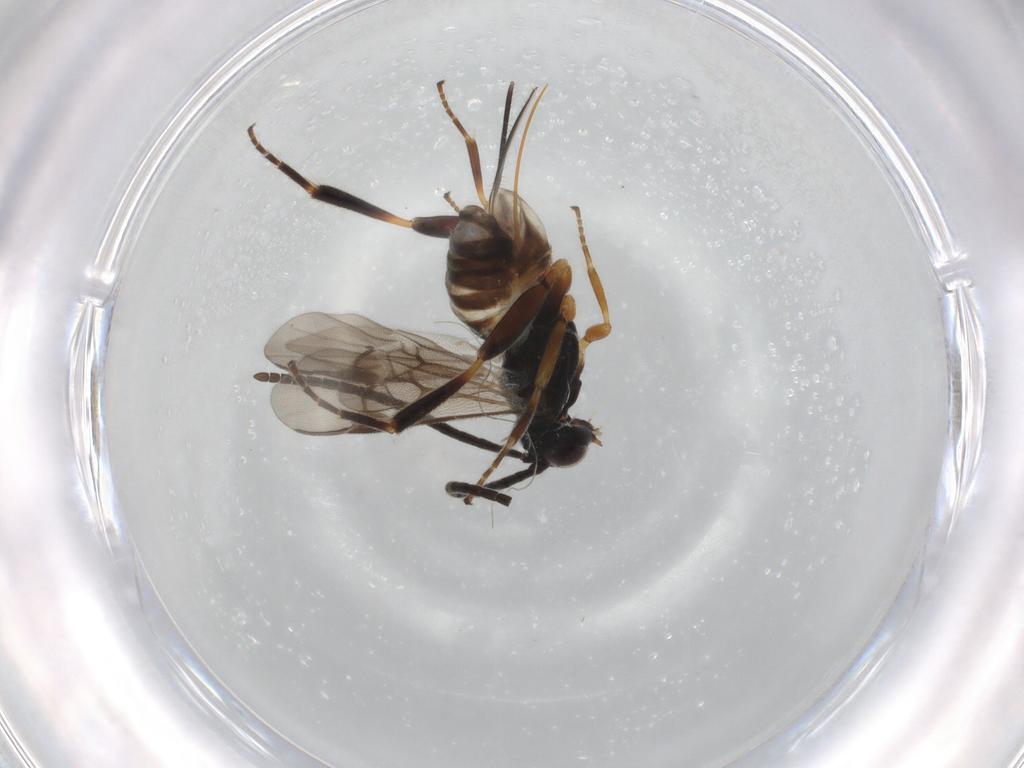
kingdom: Animalia
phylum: Arthropoda
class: Insecta
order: Hymenoptera
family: Braconidae
